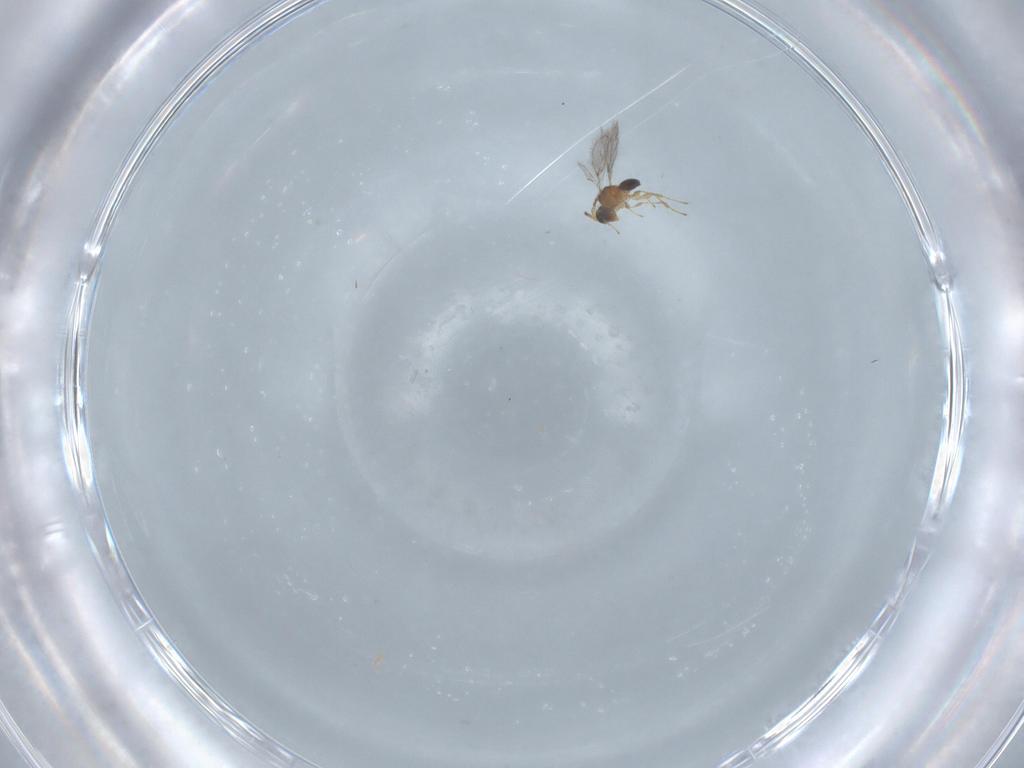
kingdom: Animalia
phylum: Arthropoda
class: Insecta
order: Hymenoptera
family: Diapriidae
